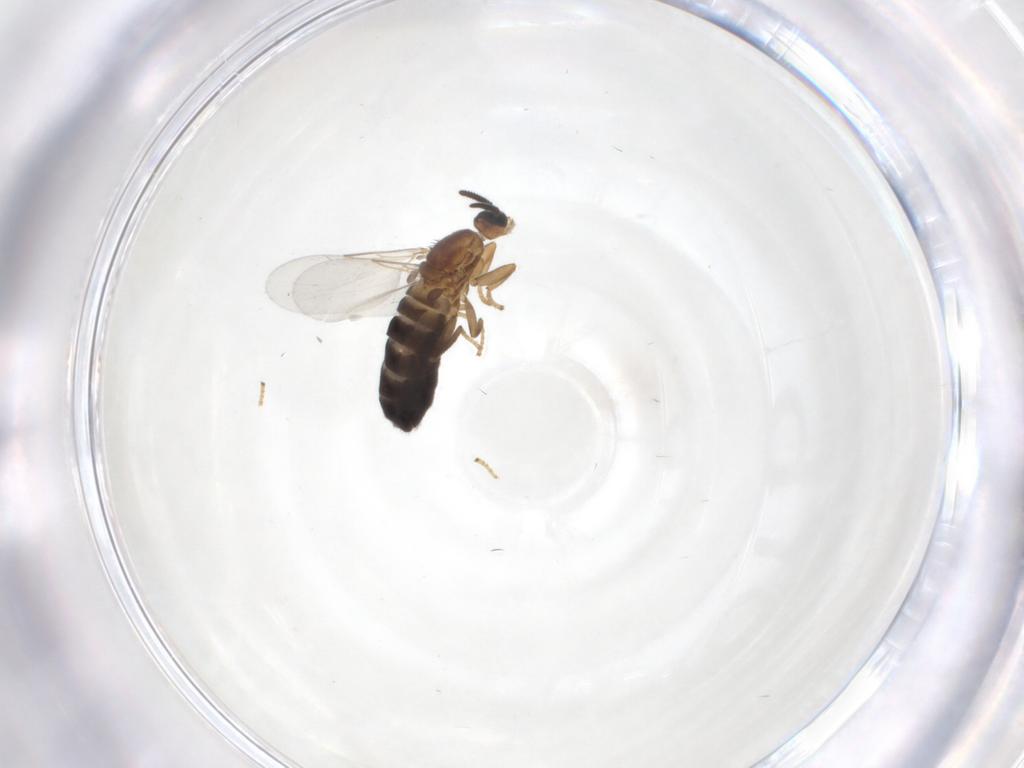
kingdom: Animalia
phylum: Arthropoda
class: Insecta
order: Diptera
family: Scatopsidae
